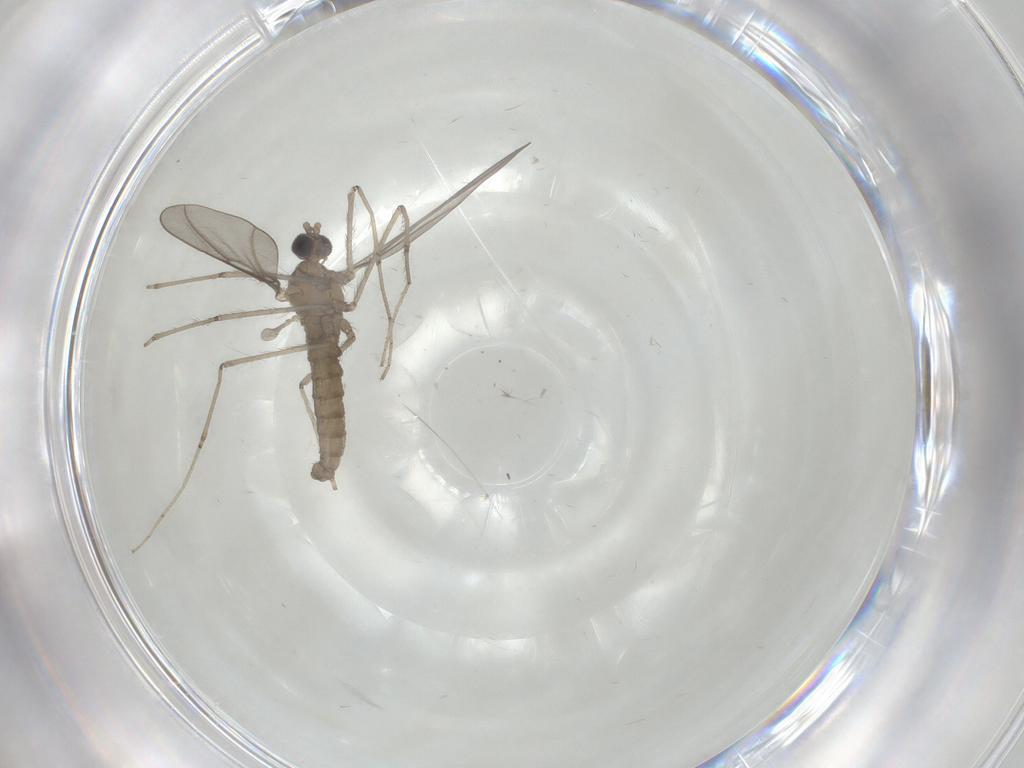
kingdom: Animalia
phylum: Arthropoda
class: Insecta
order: Diptera
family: Cecidomyiidae
